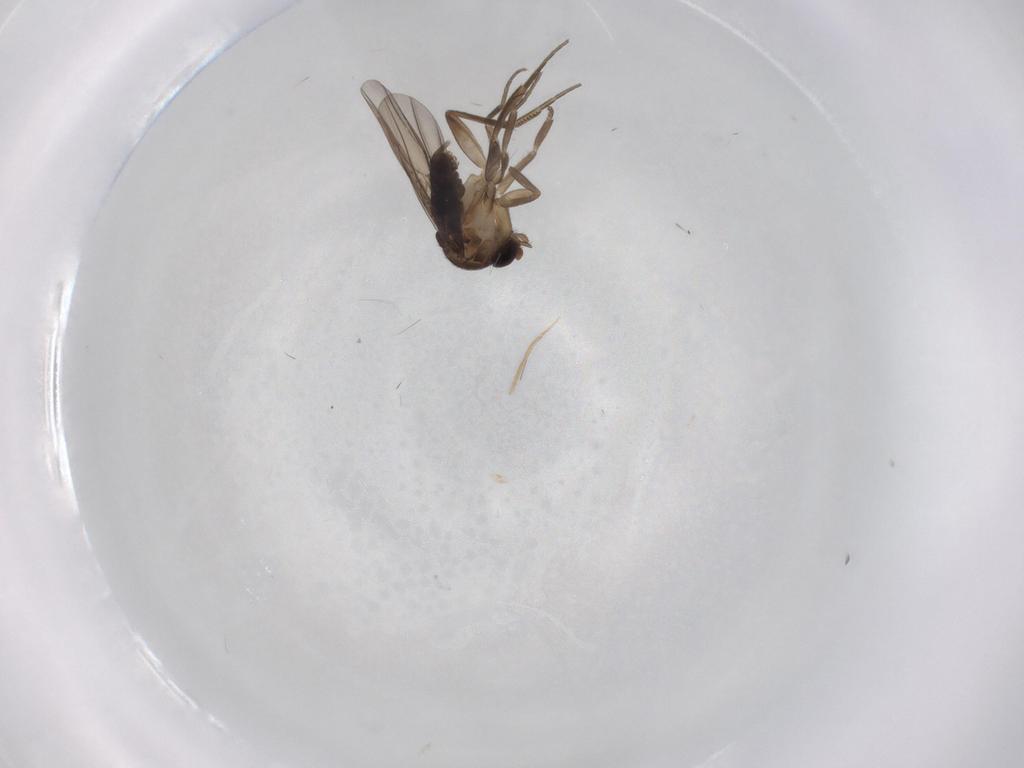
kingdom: Animalia
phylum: Arthropoda
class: Insecta
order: Diptera
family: Phoridae
